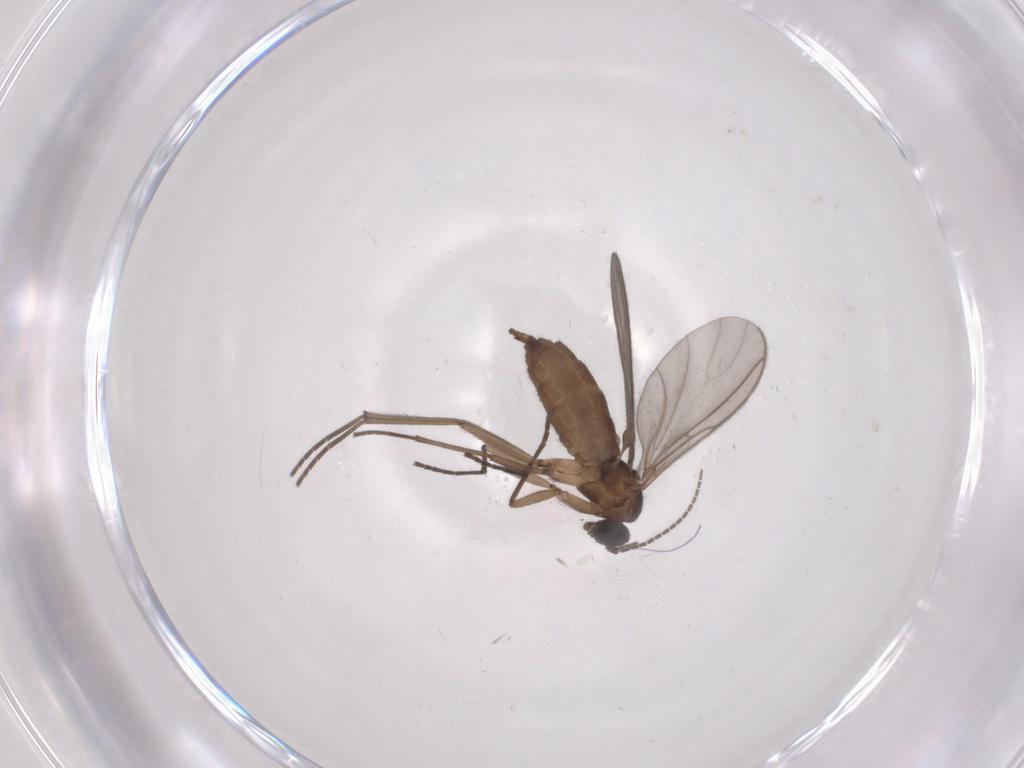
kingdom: Animalia
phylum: Arthropoda
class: Insecta
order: Diptera
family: Sciaridae
